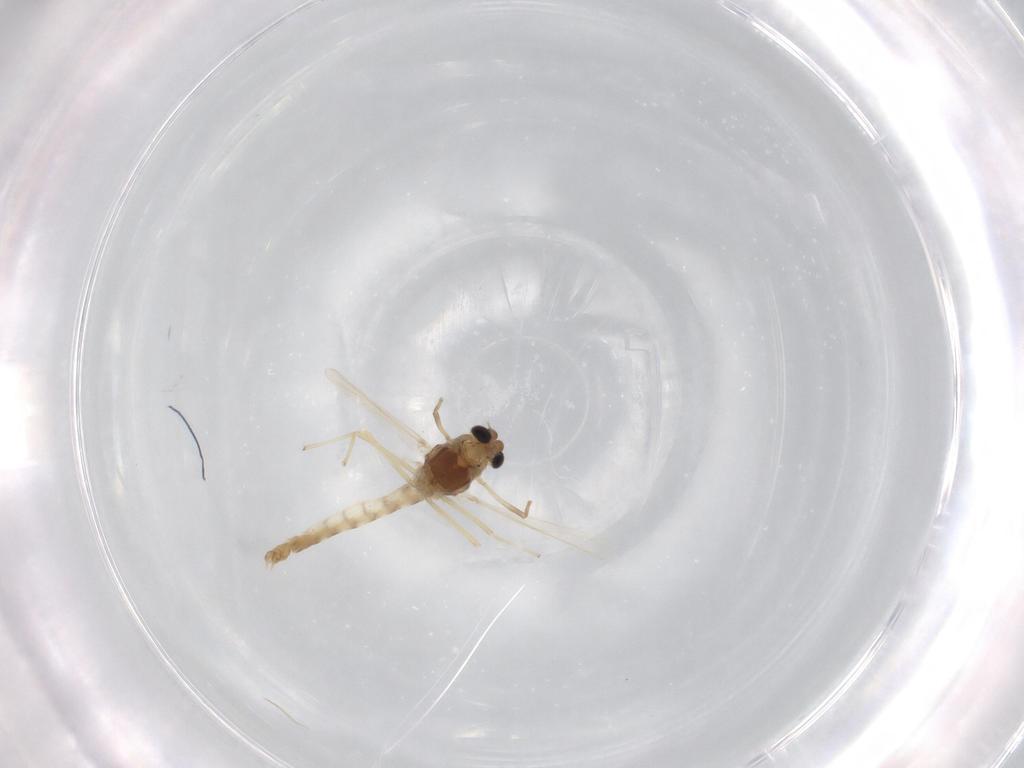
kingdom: Animalia
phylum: Arthropoda
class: Insecta
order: Diptera
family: Chironomidae
